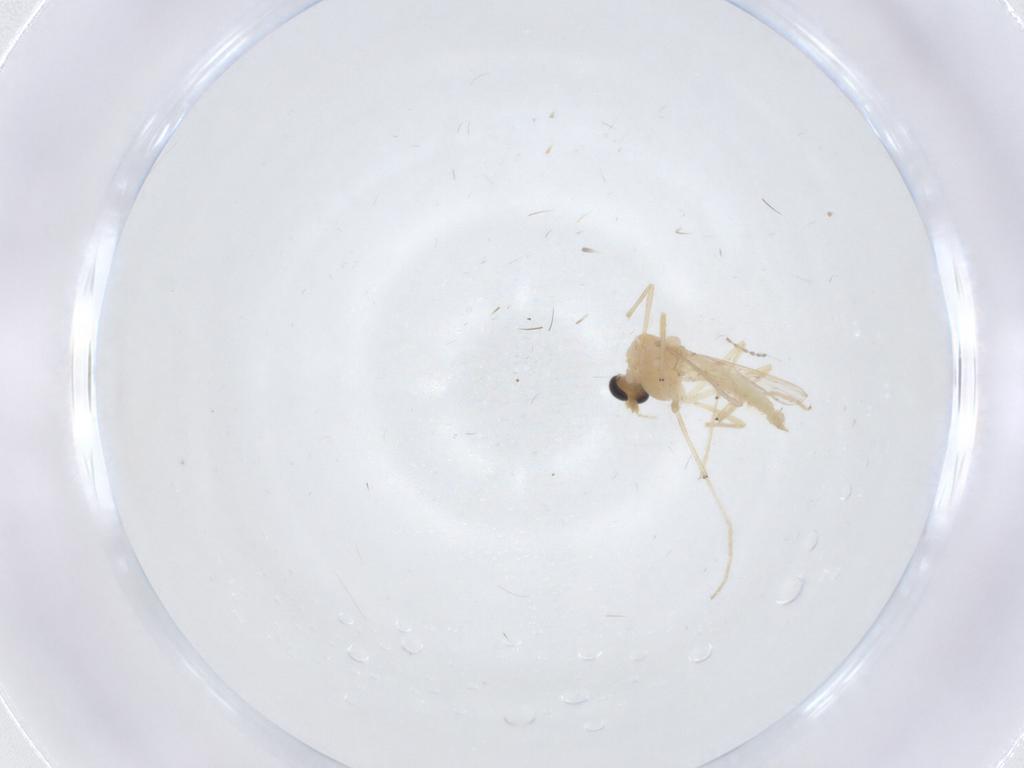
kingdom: Animalia
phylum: Arthropoda
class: Insecta
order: Diptera
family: Chironomidae
